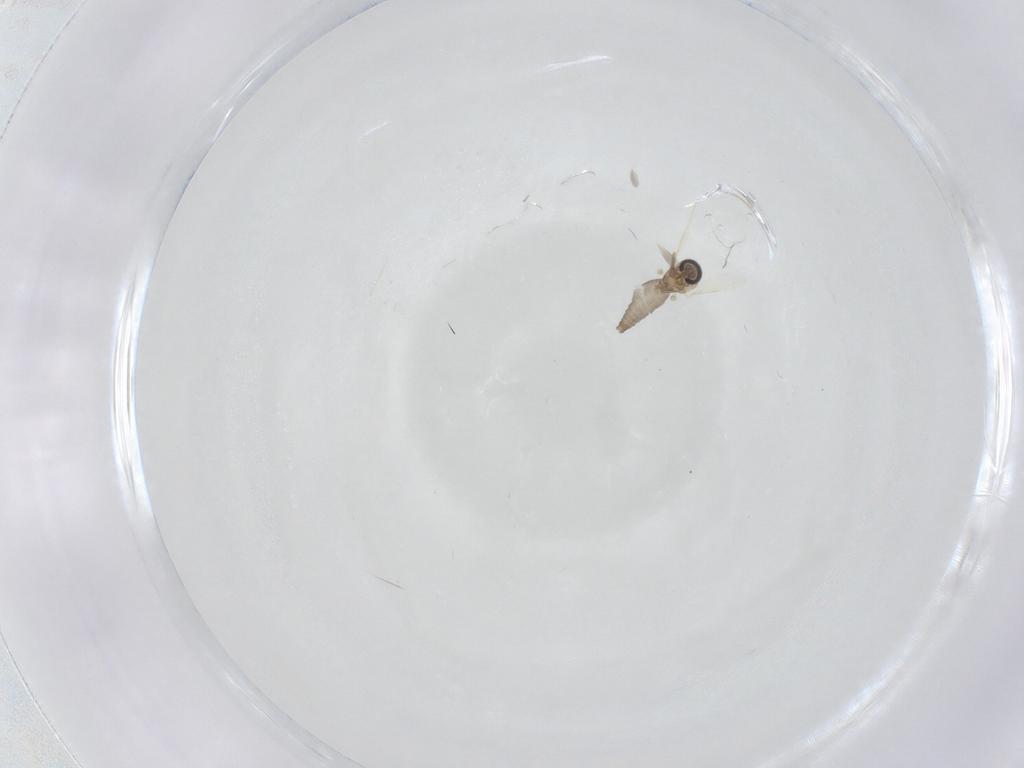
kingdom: Animalia
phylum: Arthropoda
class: Insecta
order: Diptera
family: Ceratopogonidae
